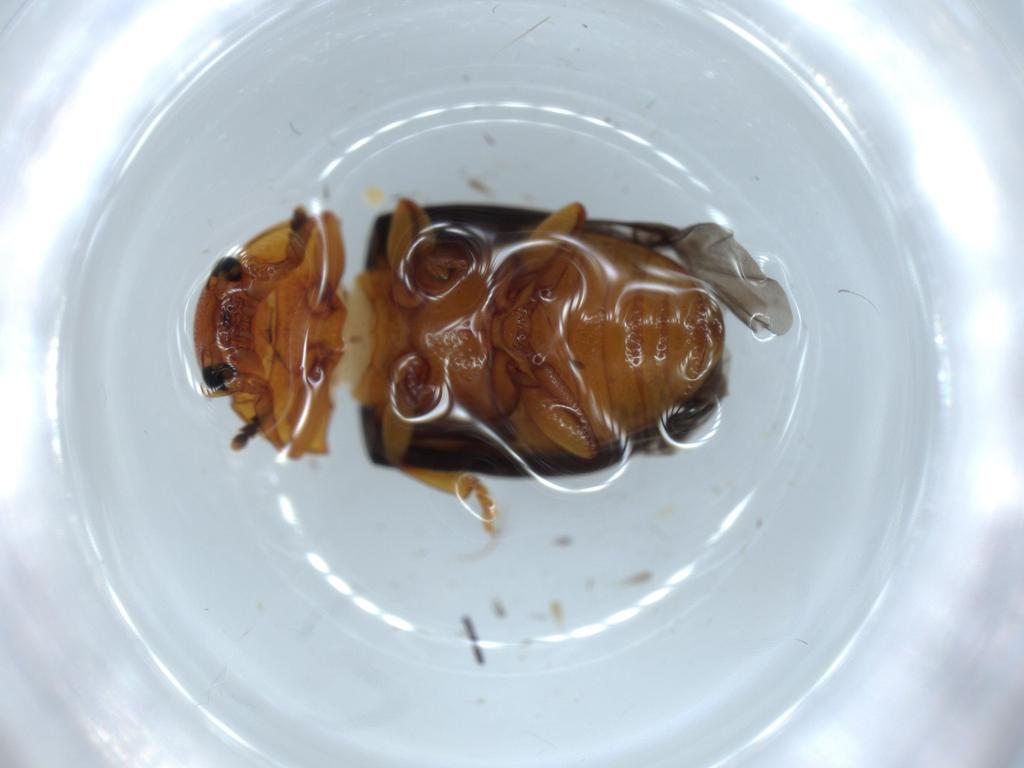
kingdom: Animalia
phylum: Arthropoda
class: Insecta
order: Coleoptera
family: Erotylidae
